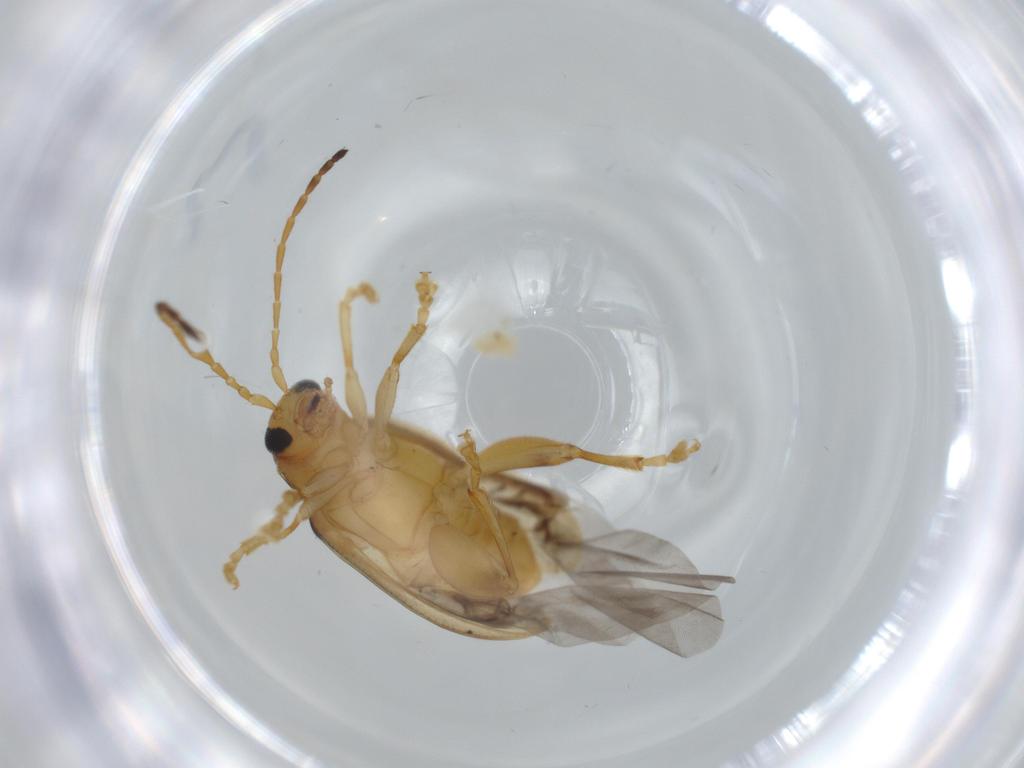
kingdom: Animalia
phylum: Arthropoda
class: Insecta
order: Coleoptera
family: Chrysomelidae
